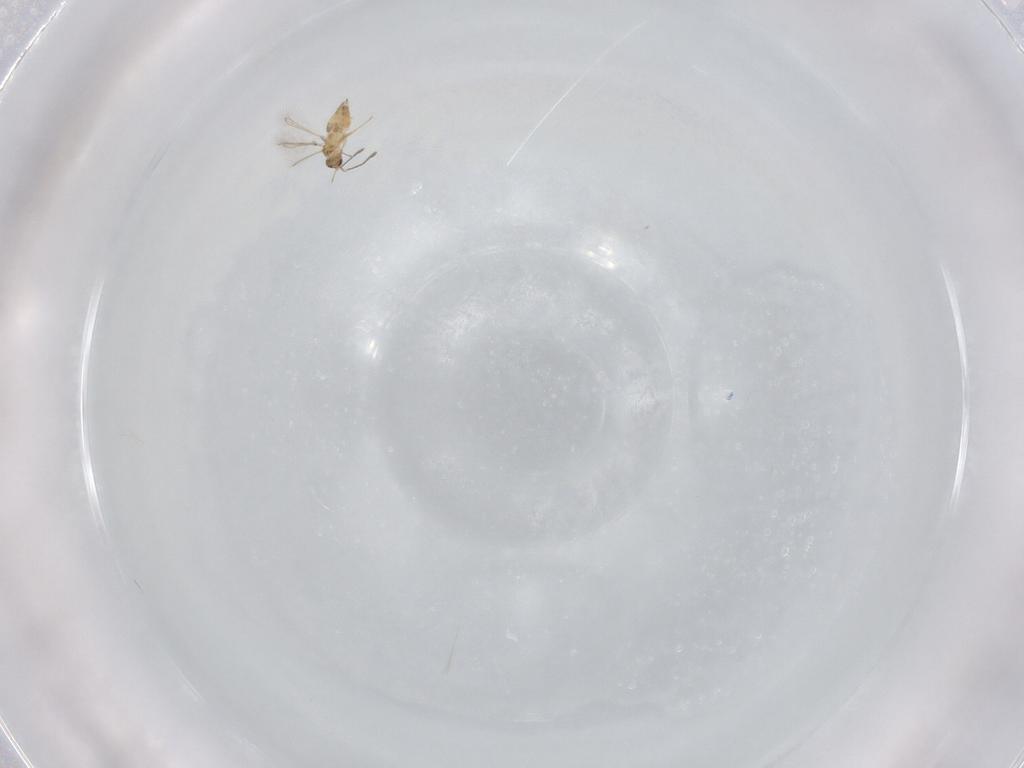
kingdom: Animalia
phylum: Arthropoda
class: Insecta
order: Hymenoptera
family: Mymaridae
